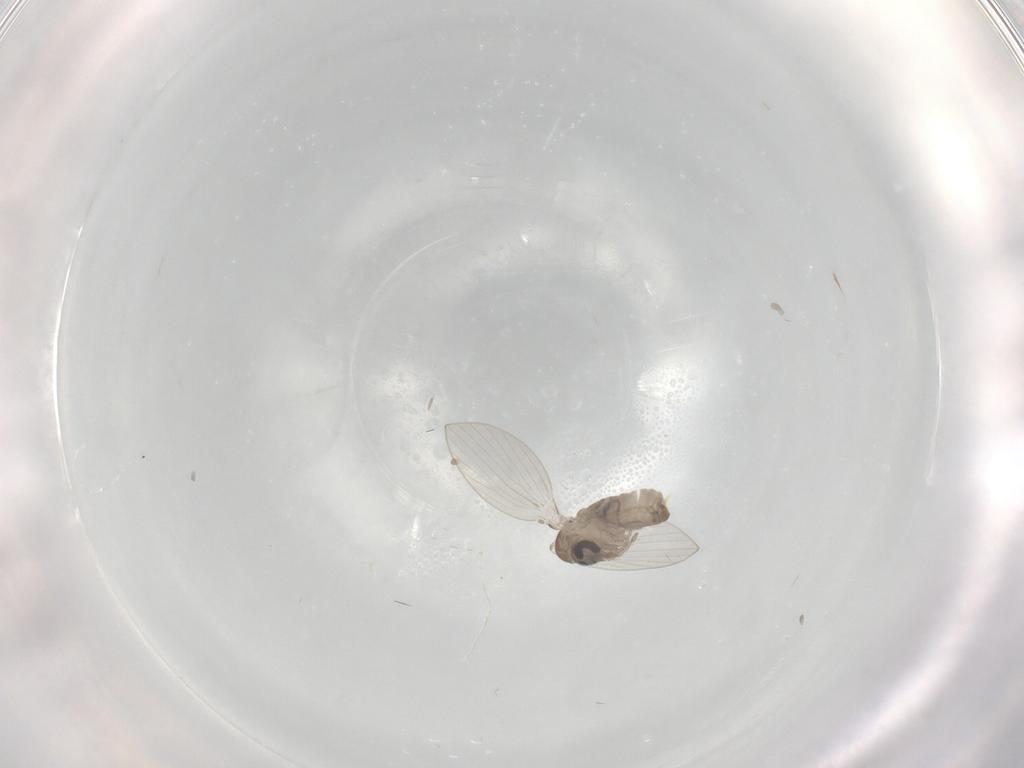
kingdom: Animalia
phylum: Arthropoda
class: Insecta
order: Diptera
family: Psychodidae
